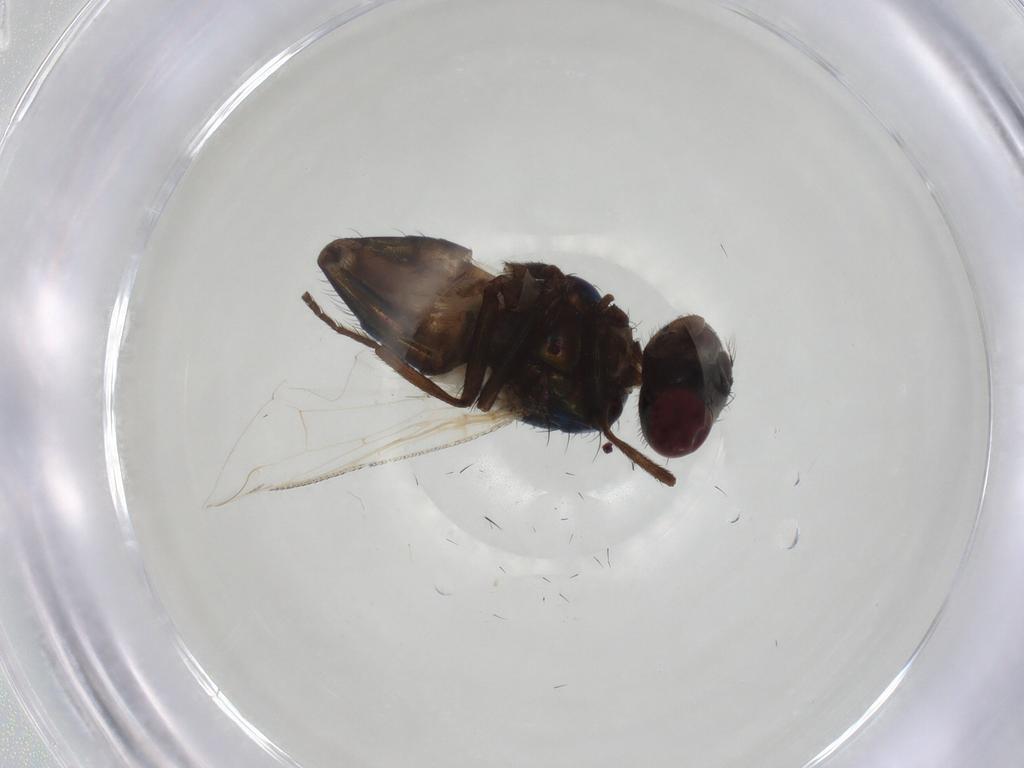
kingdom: Animalia
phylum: Arthropoda
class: Insecta
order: Diptera
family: Muscidae
